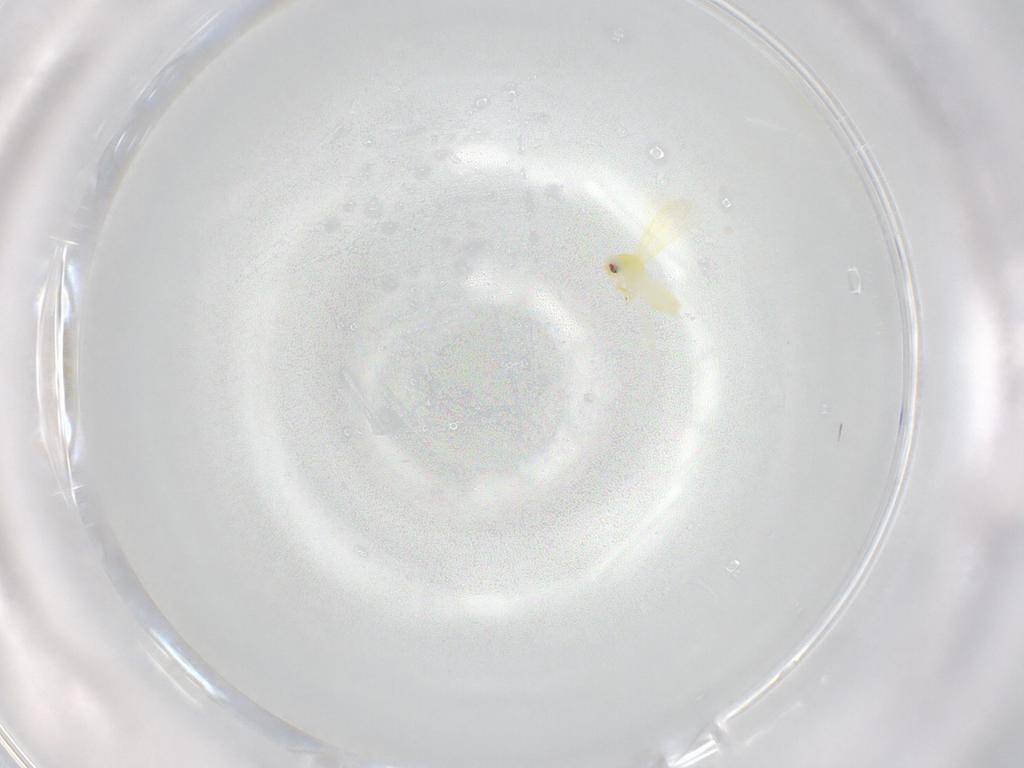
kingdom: Animalia
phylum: Arthropoda
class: Insecta
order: Hemiptera
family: Aleyrodidae
